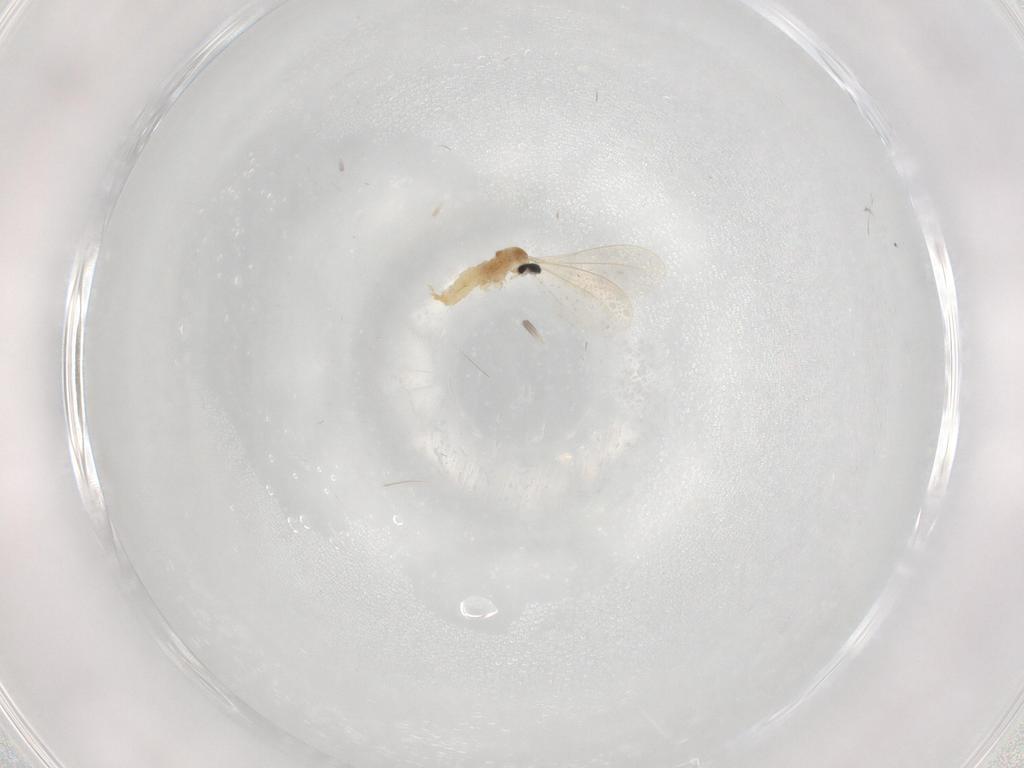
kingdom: Animalia
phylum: Arthropoda
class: Insecta
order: Diptera
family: Cecidomyiidae
